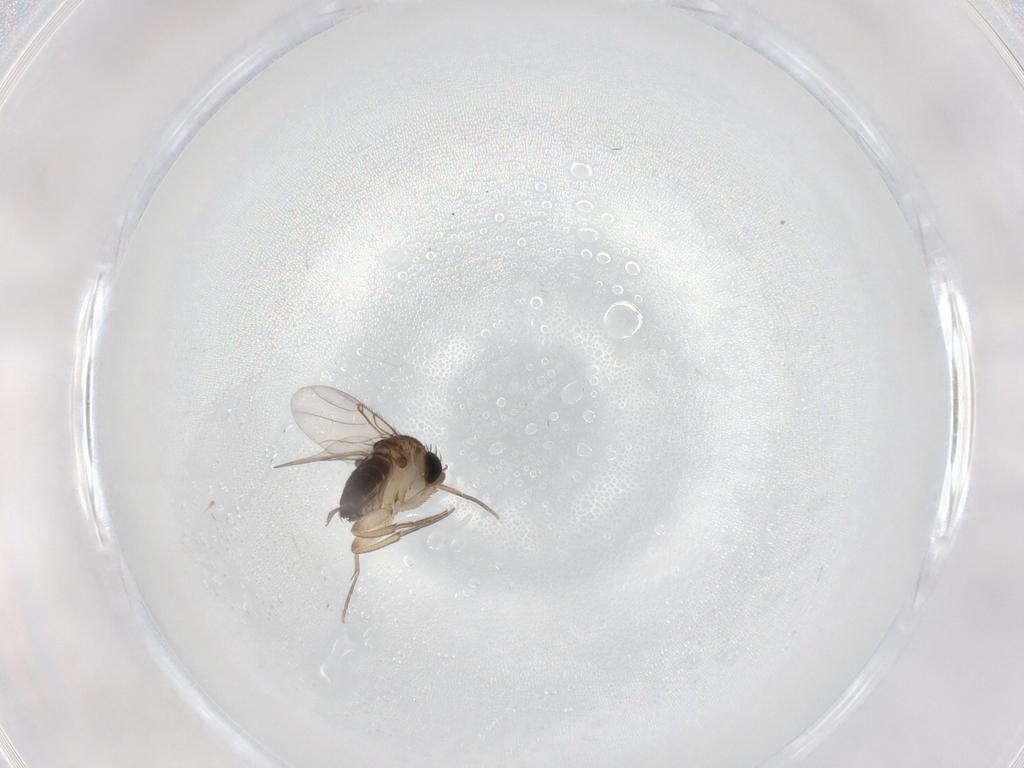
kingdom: Animalia
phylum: Arthropoda
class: Insecta
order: Diptera
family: Phoridae
